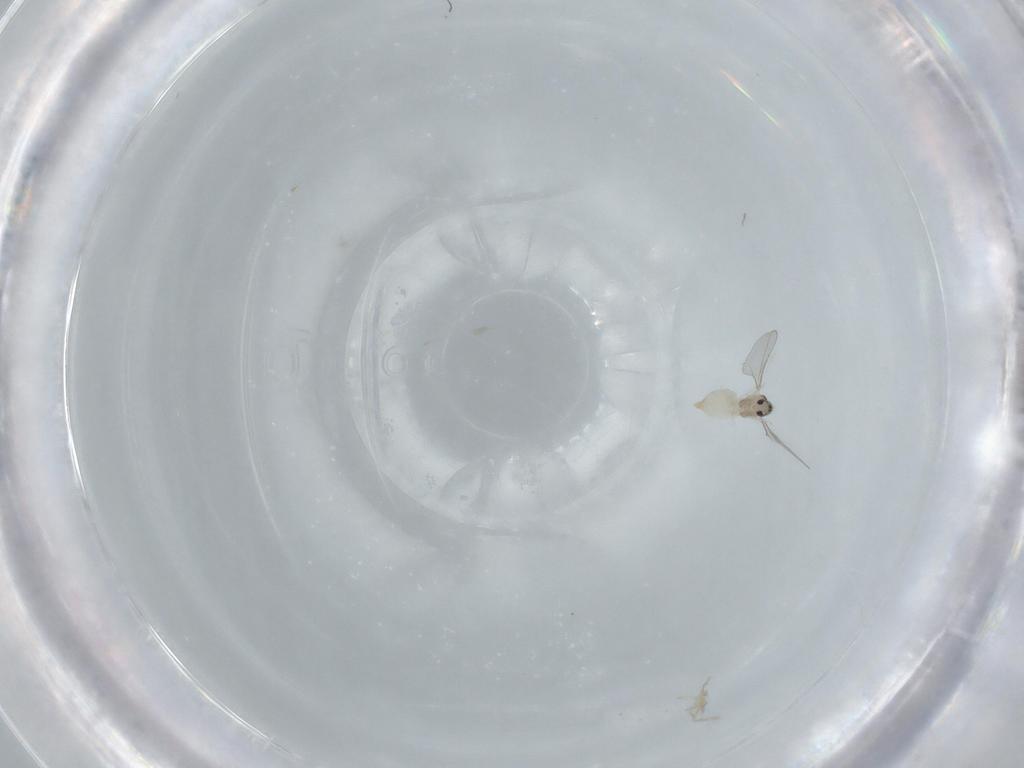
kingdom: Animalia
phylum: Arthropoda
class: Insecta
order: Diptera
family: Cecidomyiidae
